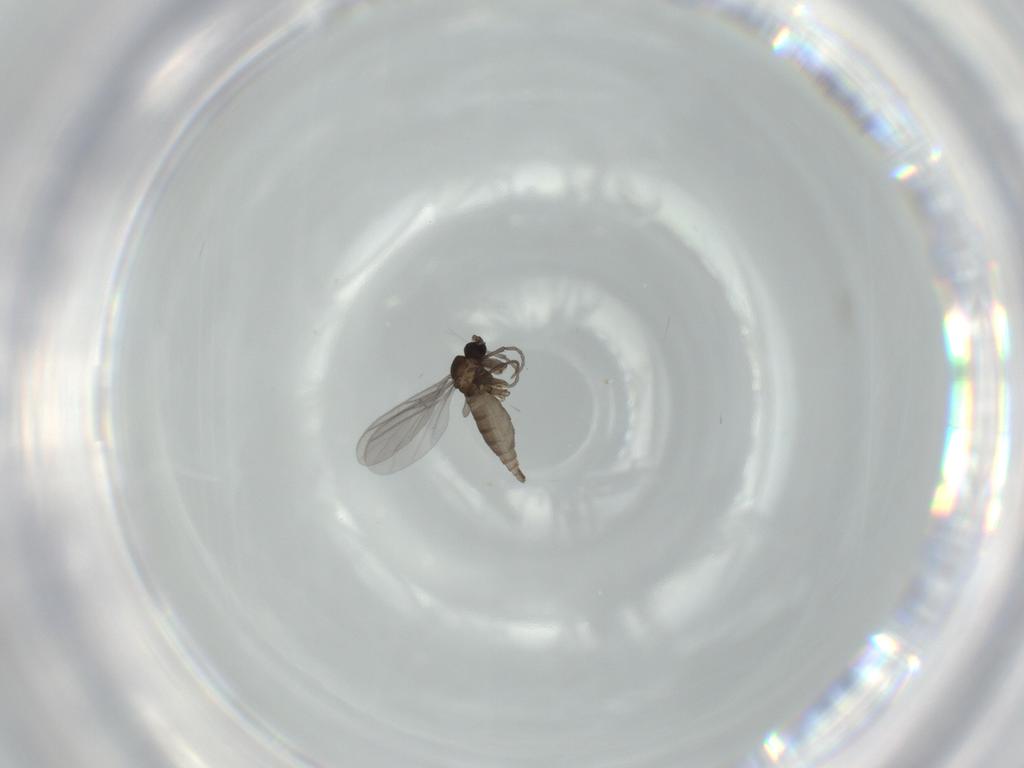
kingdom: Animalia
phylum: Arthropoda
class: Insecta
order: Diptera
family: Sciaridae
